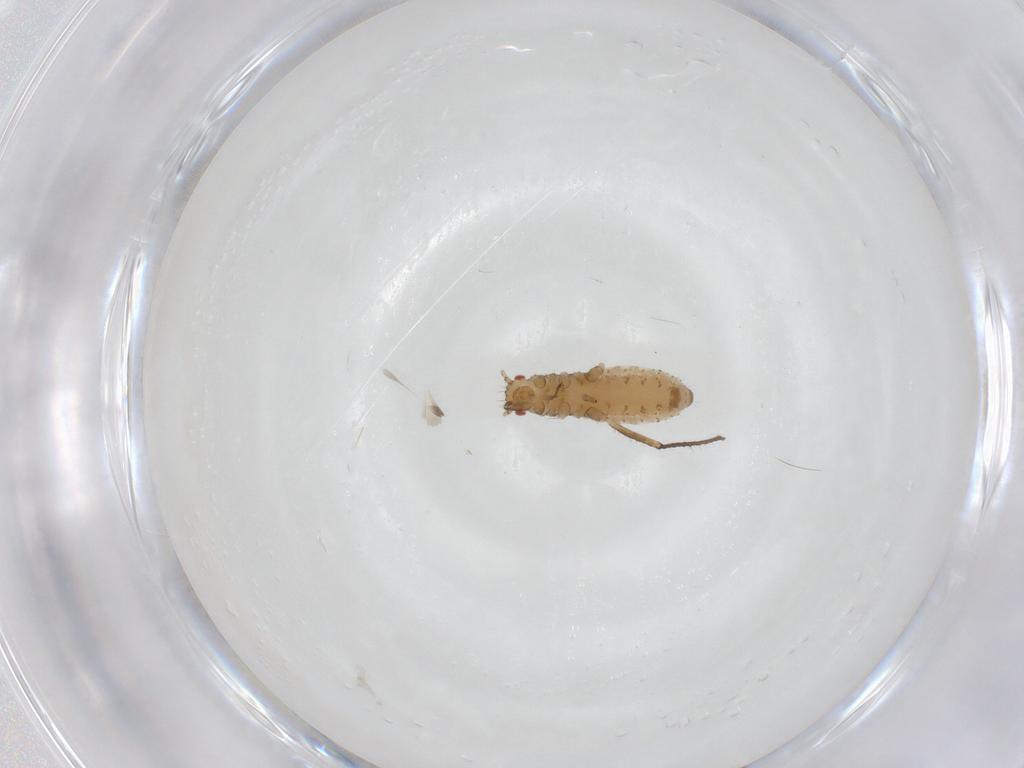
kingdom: Animalia
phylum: Arthropoda
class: Insecta
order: Hemiptera
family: Aphididae
